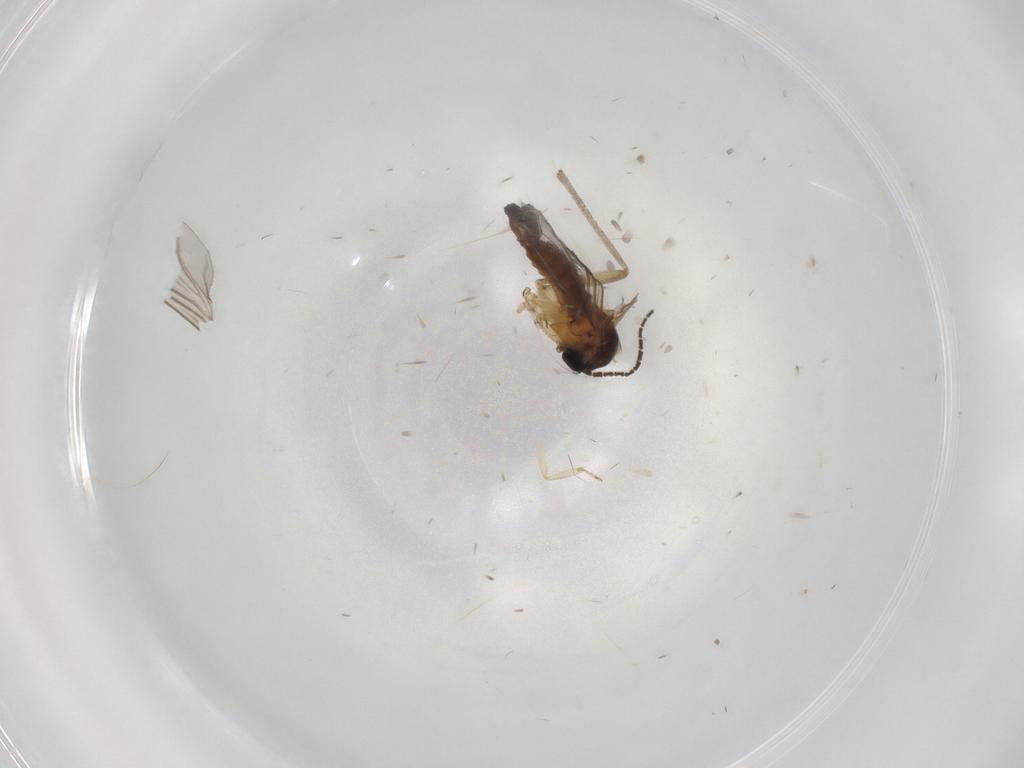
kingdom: Animalia
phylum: Arthropoda
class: Insecta
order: Diptera
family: Sciaridae
